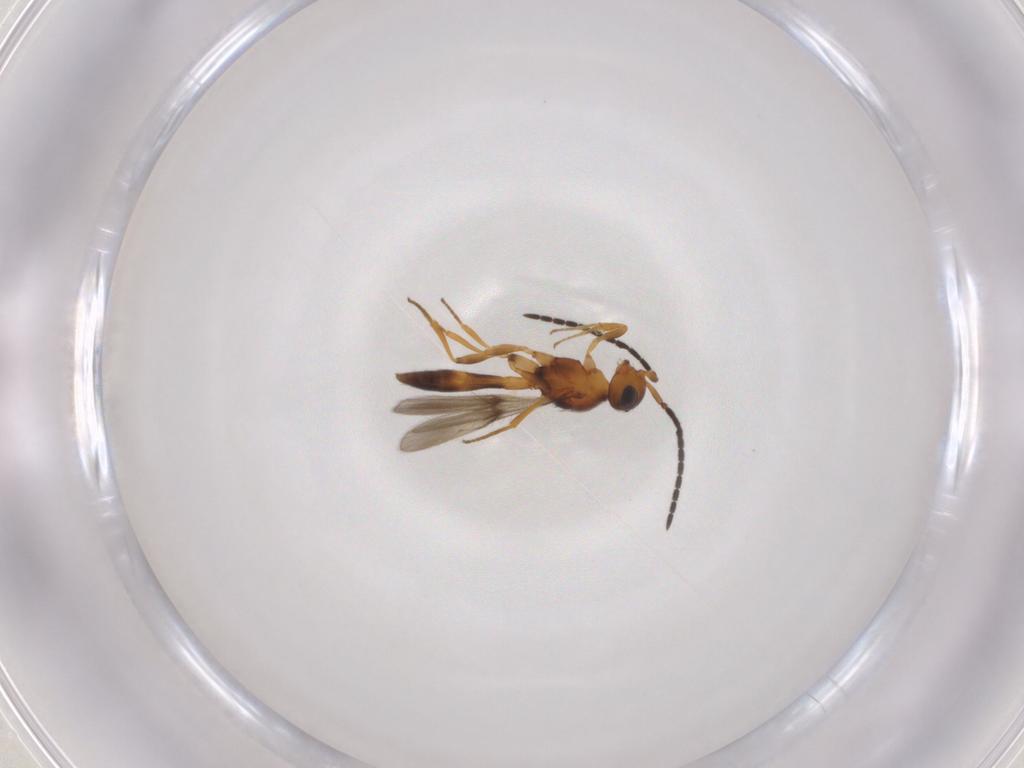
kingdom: Animalia
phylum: Arthropoda
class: Insecta
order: Hymenoptera
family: Scelionidae
